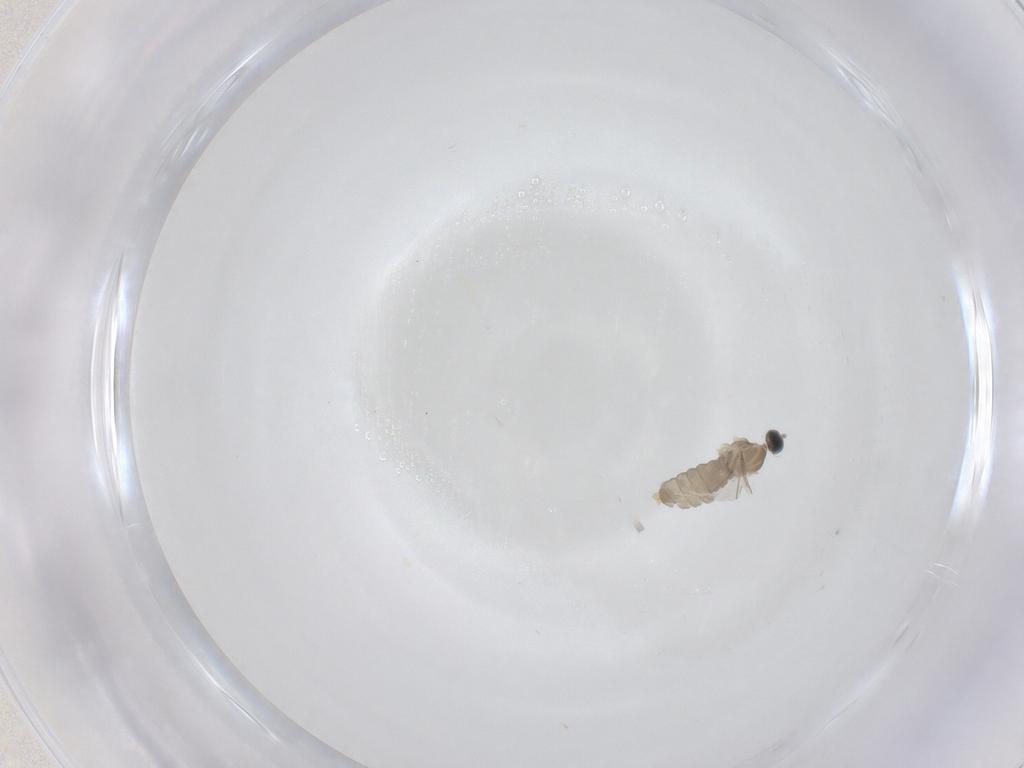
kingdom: Animalia
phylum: Arthropoda
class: Insecta
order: Diptera
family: Cecidomyiidae
